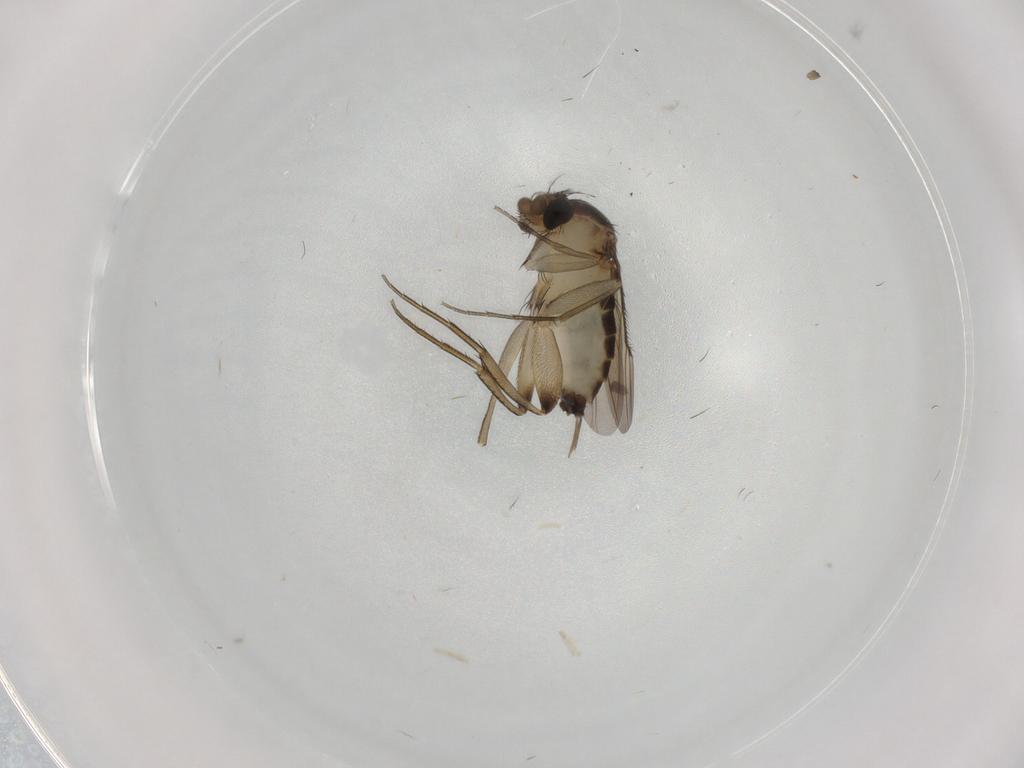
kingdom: Animalia
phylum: Arthropoda
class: Insecta
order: Diptera
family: Phoridae
